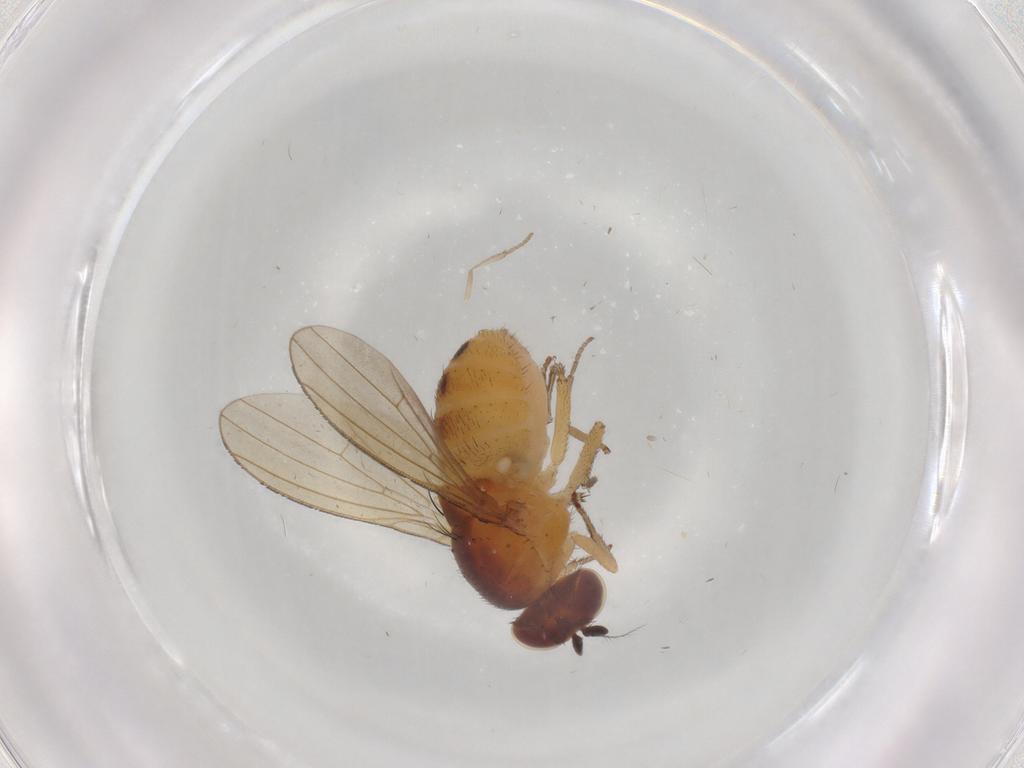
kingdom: Animalia
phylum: Arthropoda
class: Insecta
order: Diptera
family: Sciaridae
